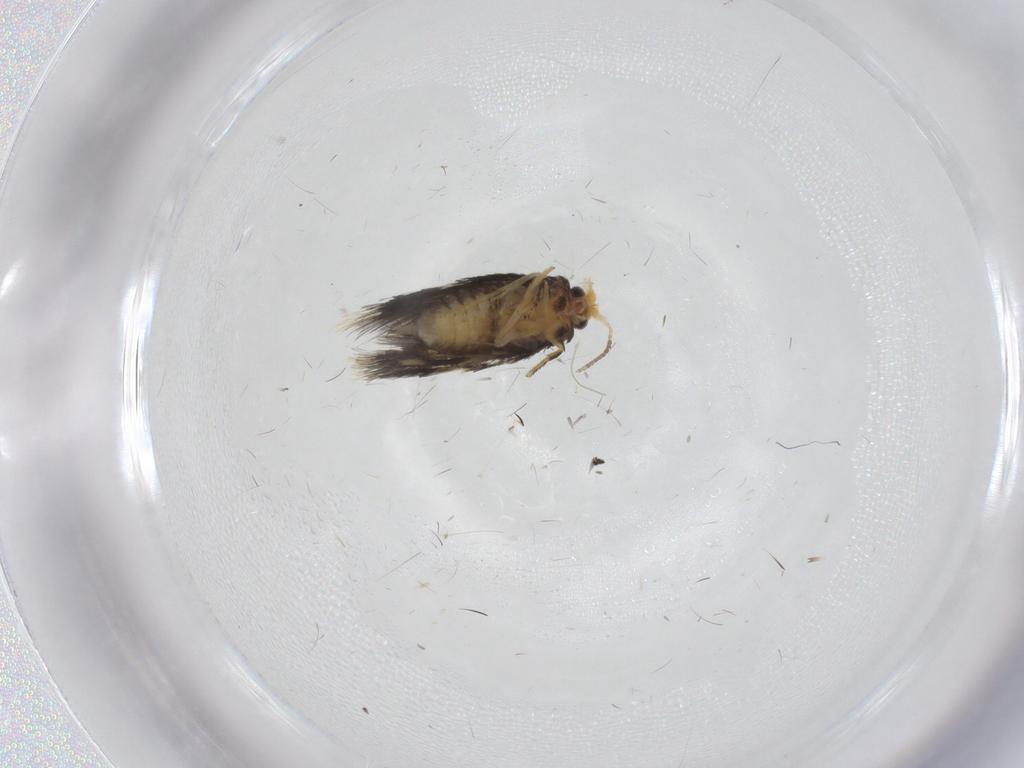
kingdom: Animalia
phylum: Arthropoda
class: Insecta
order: Lepidoptera
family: Nepticulidae
